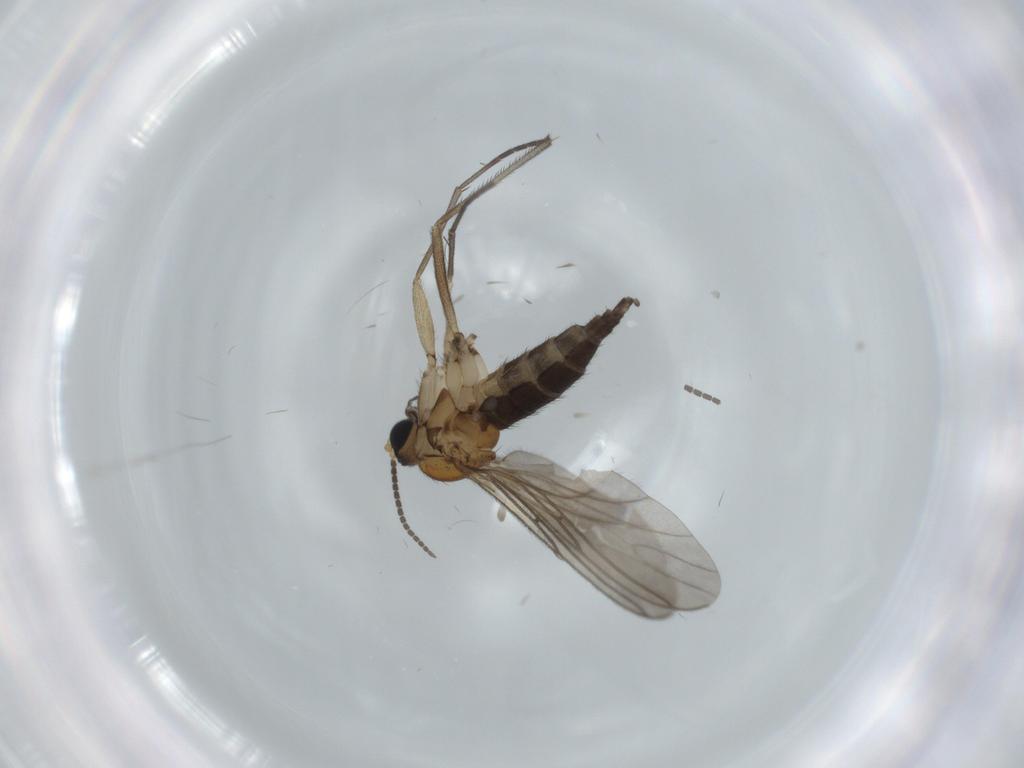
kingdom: Animalia
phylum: Arthropoda
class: Insecta
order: Diptera
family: Sciaridae
